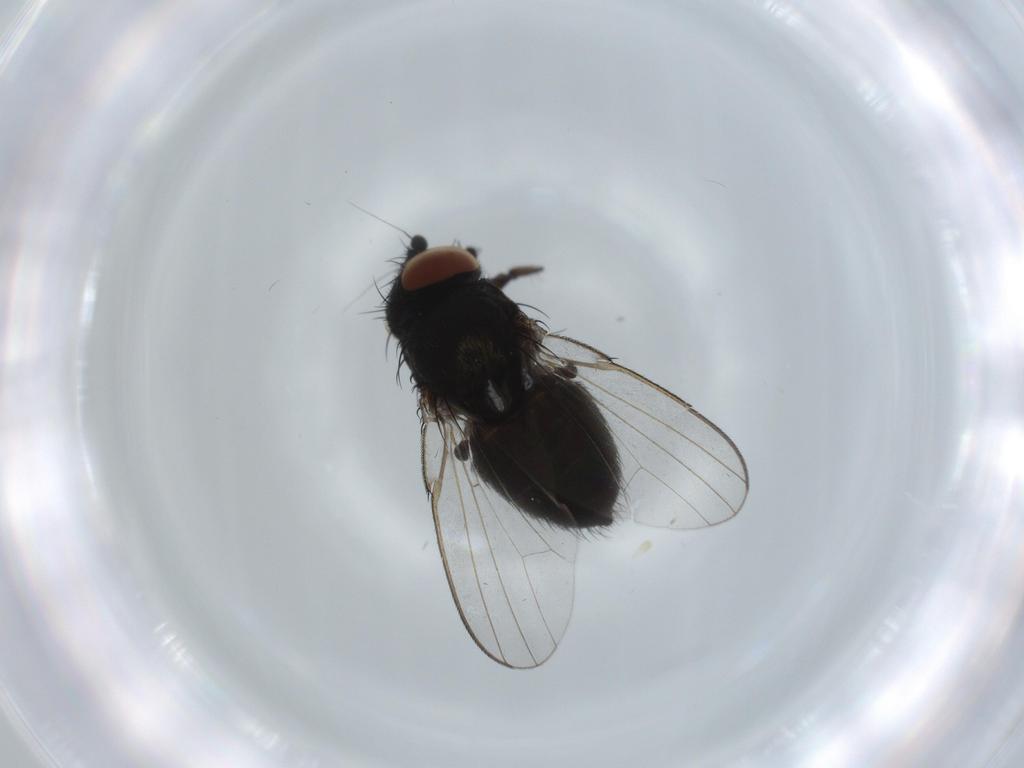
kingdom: Animalia
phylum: Arthropoda
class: Insecta
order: Diptera
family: Milichiidae
